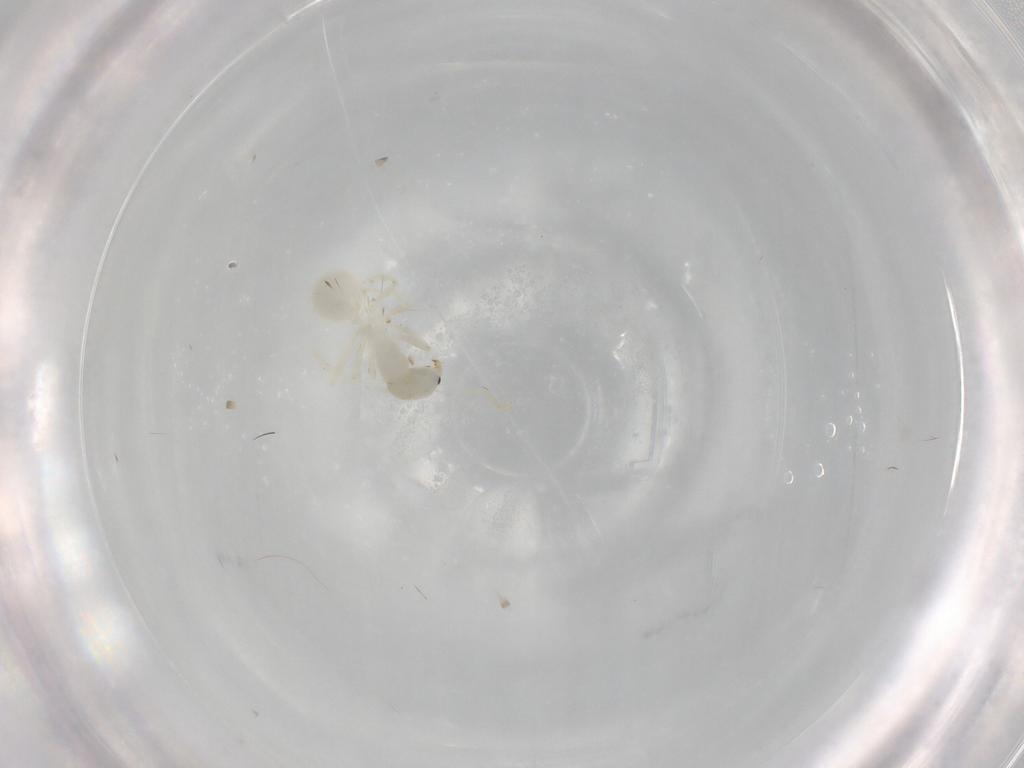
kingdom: Animalia
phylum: Arthropoda
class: Insecta
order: Hymenoptera
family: Formicidae
